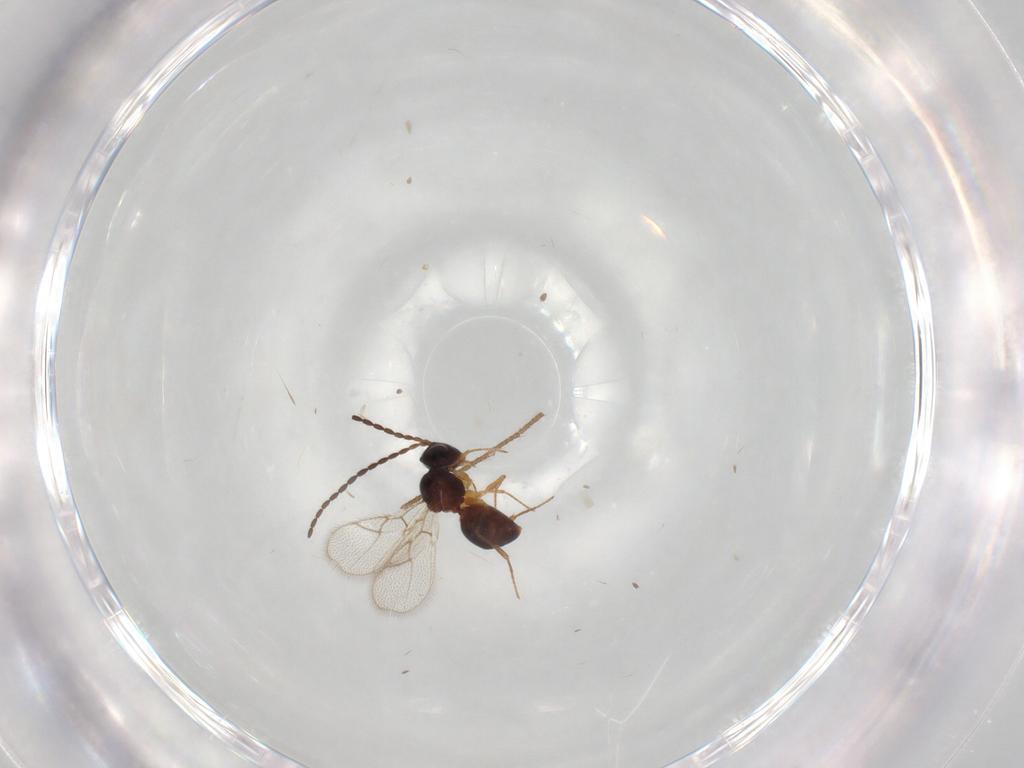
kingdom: Animalia
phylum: Arthropoda
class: Insecta
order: Hymenoptera
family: Figitidae
